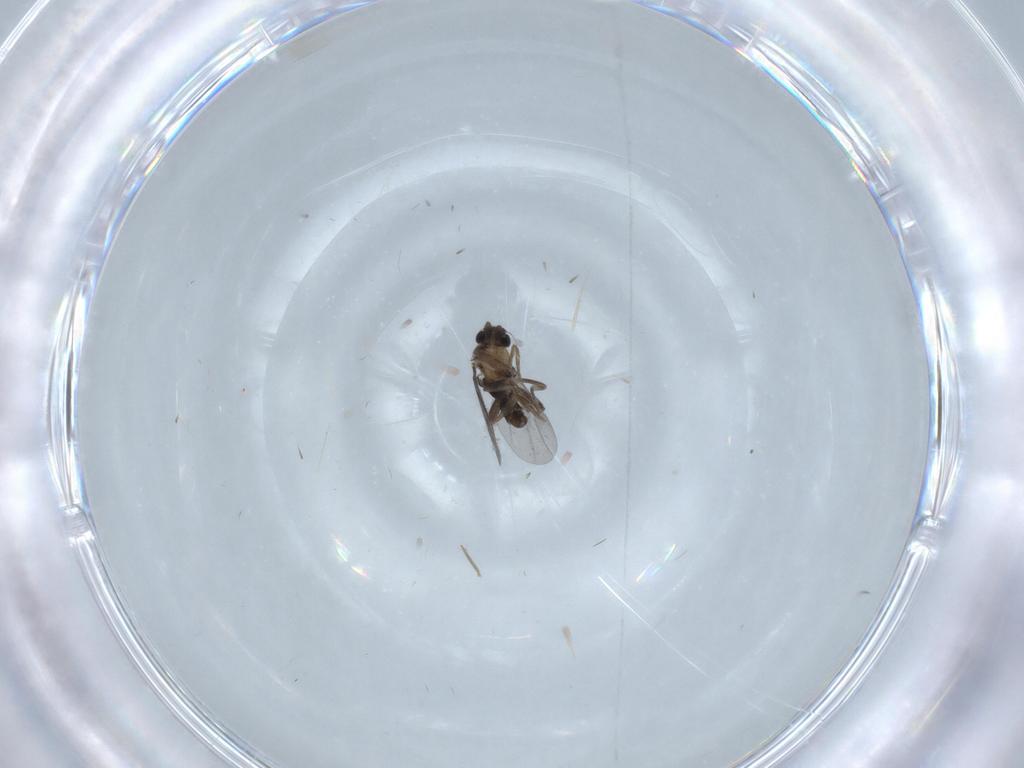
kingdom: Animalia
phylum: Arthropoda
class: Insecta
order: Diptera
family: Chironomidae
